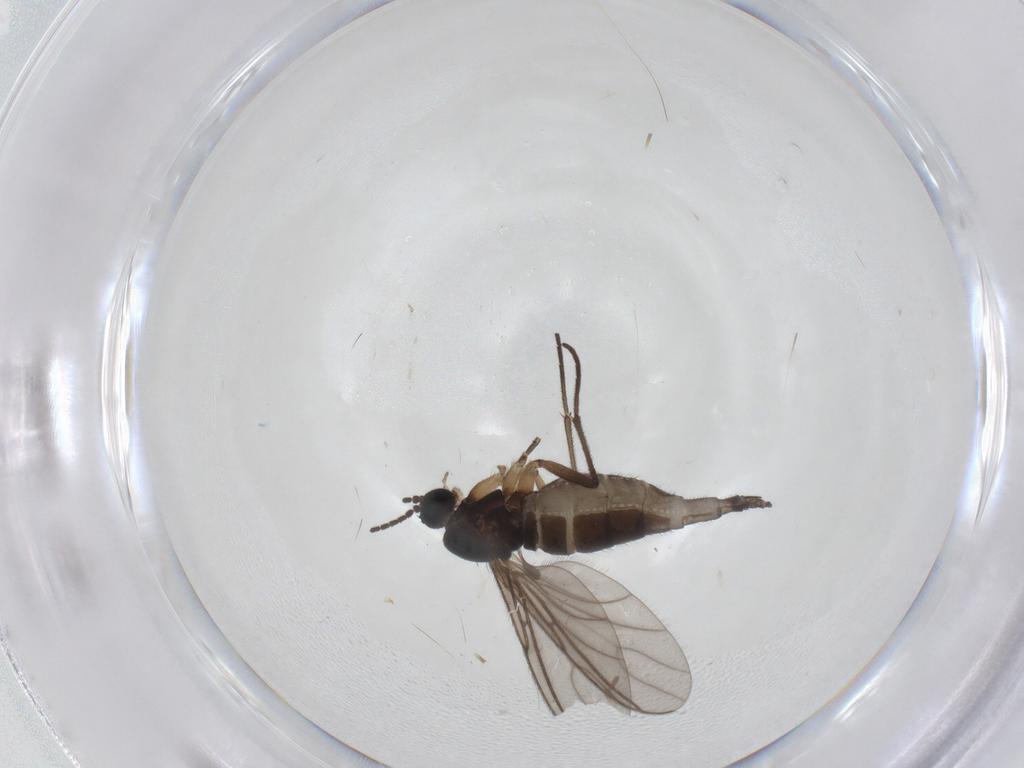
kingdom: Animalia
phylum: Arthropoda
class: Insecta
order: Diptera
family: Sciaridae
